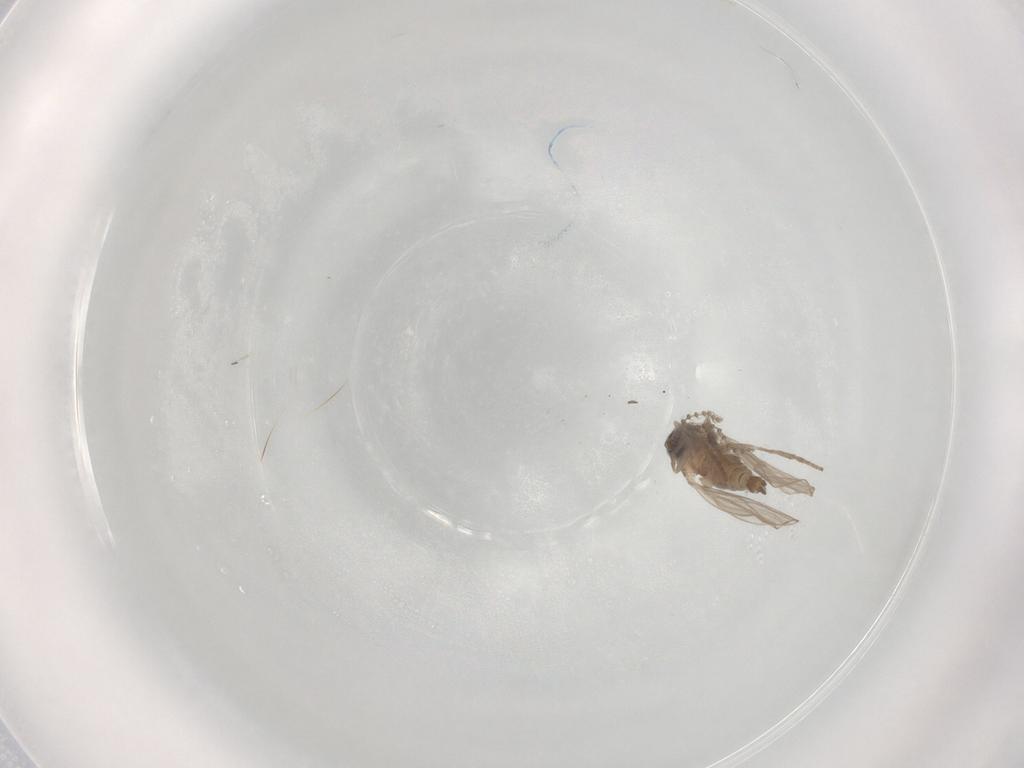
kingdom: Animalia
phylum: Arthropoda
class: Insecta
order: Diptera
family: Psychodidae
